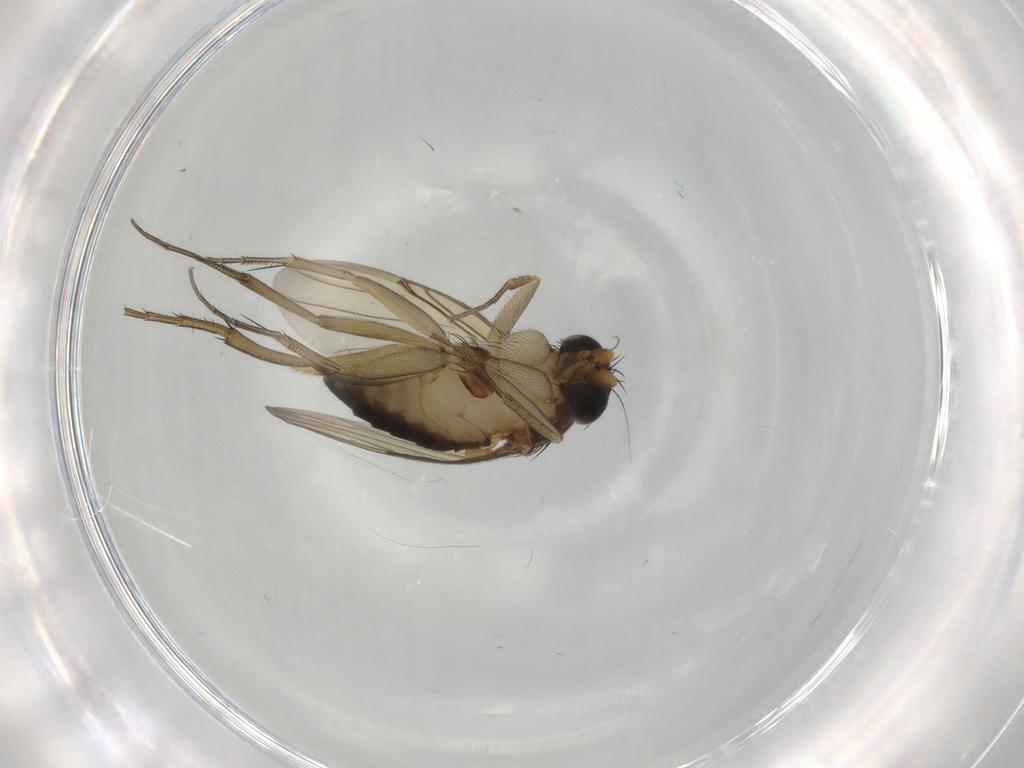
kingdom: Animalia
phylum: Arthropoda
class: Insecta
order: Diptera
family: Phoridae
